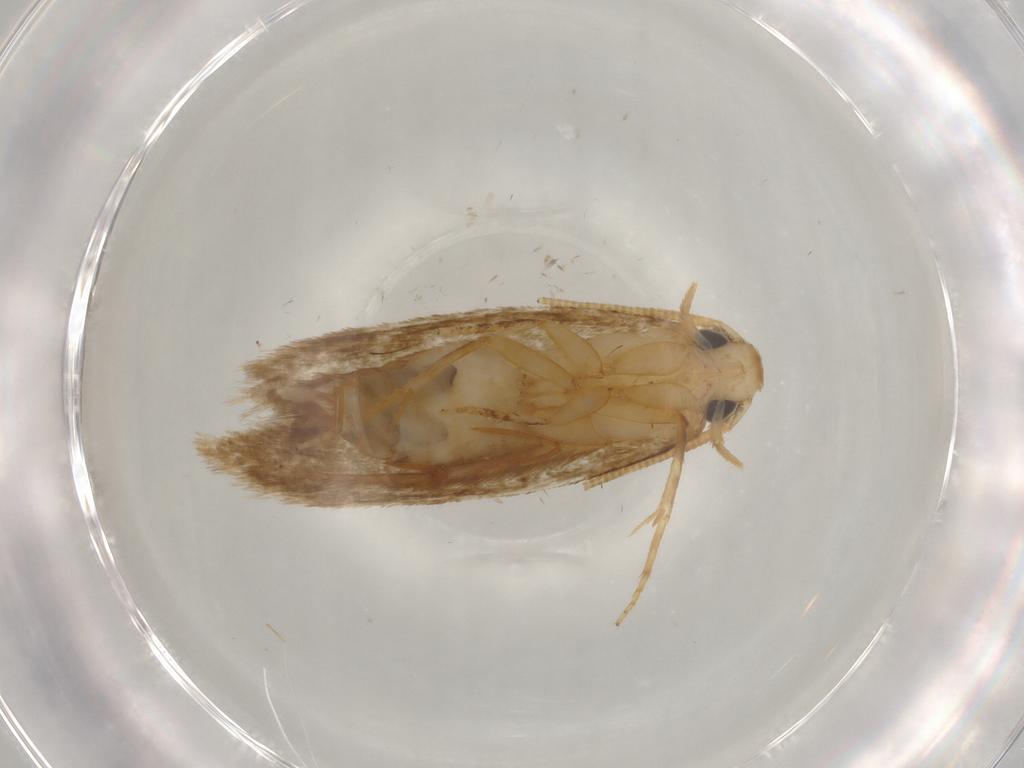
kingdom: Animalia
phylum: Arthropoda
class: Insecta
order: Lepidoptera
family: Tineidae
